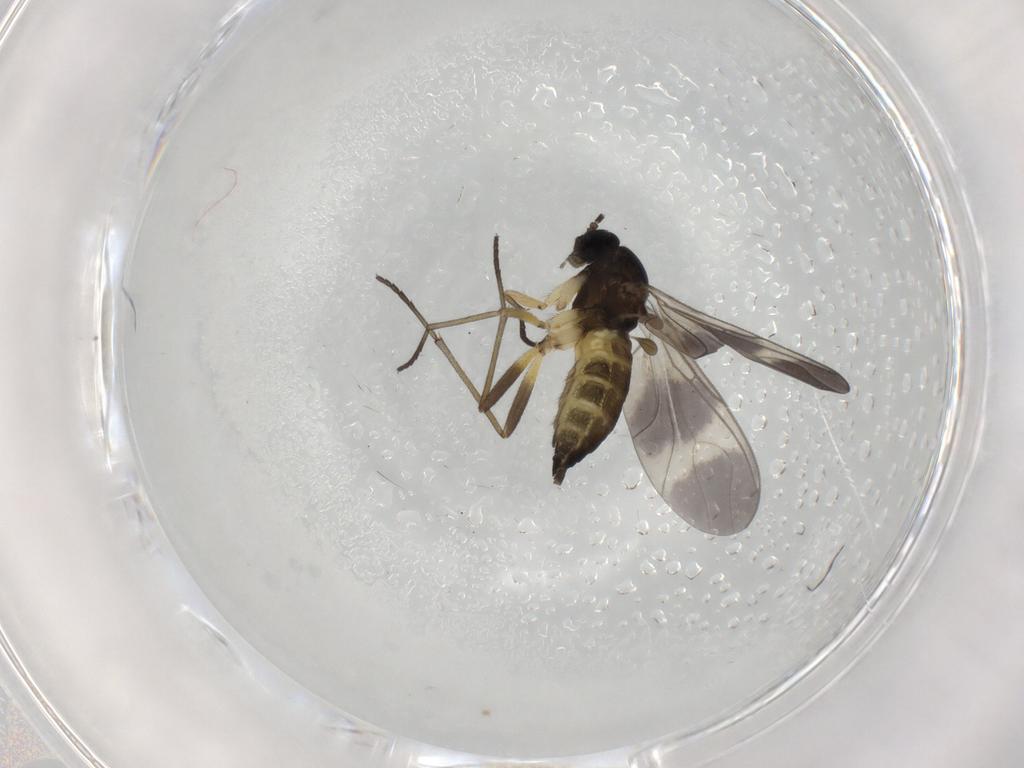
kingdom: Animalia
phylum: Arthropoda
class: Insecta
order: Diptera
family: Sciaridae
